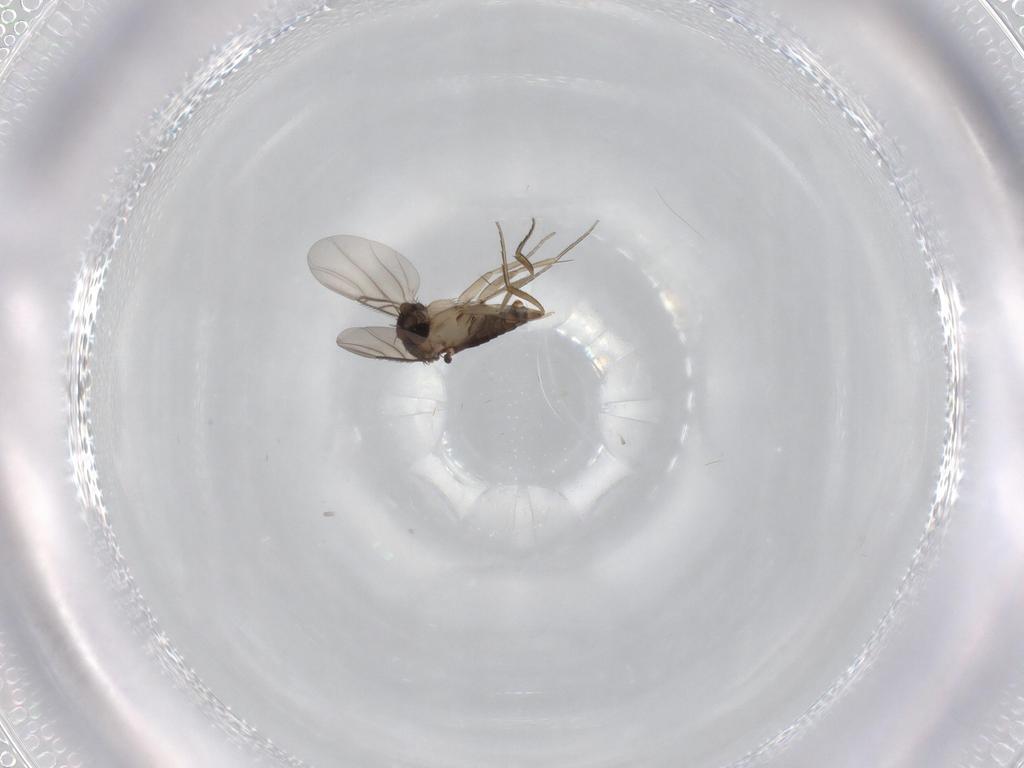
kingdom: Animalia
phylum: Arthropoda
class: Insecta
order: Diptera
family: Phoridae
